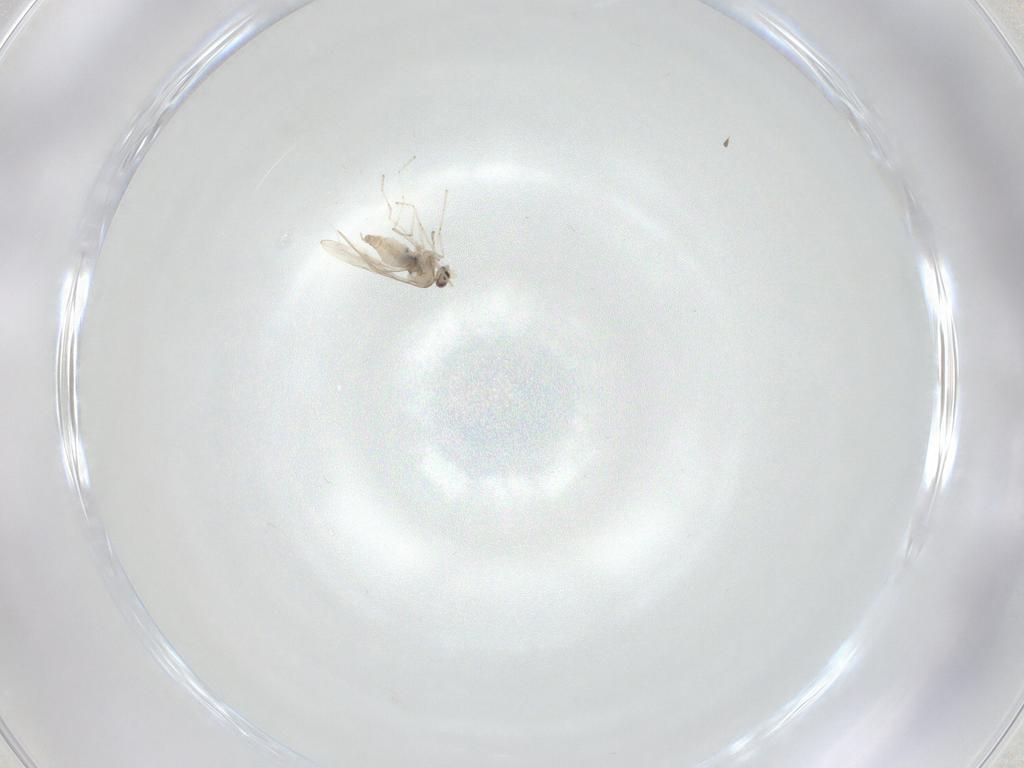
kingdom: Animalia
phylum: Arthropoda
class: Insecta
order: Diptera
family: Cecidomyiidae
